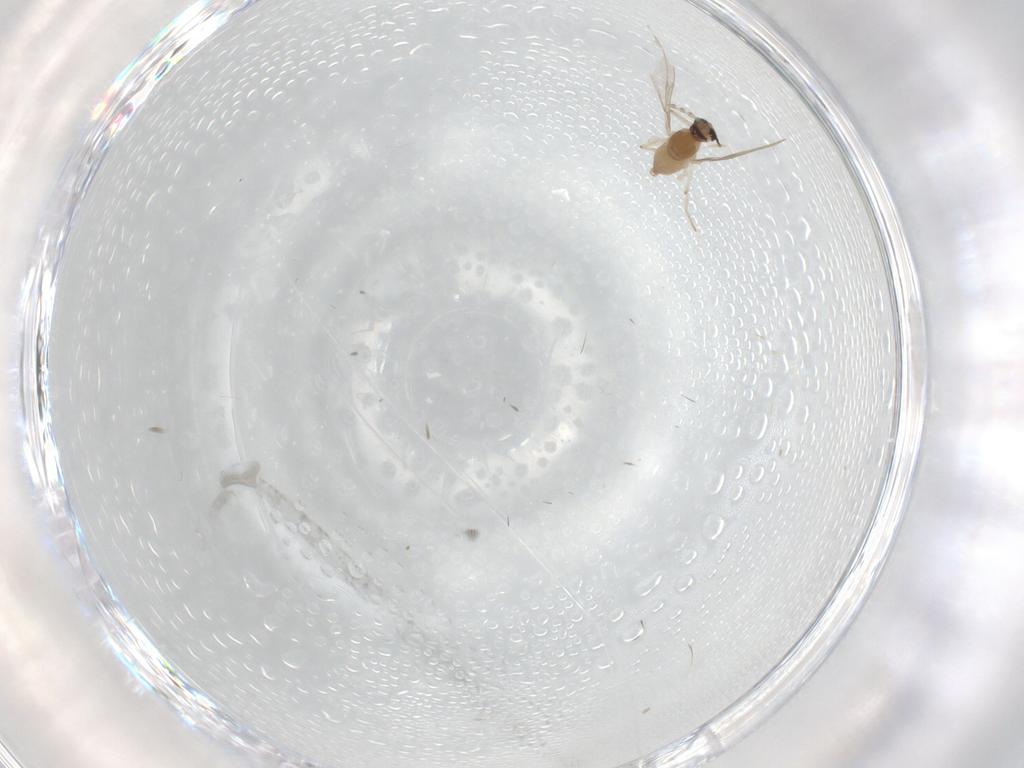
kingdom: Animalia
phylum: Arthropoda
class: Insecta
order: Diptera
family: Cecidomyiidae
